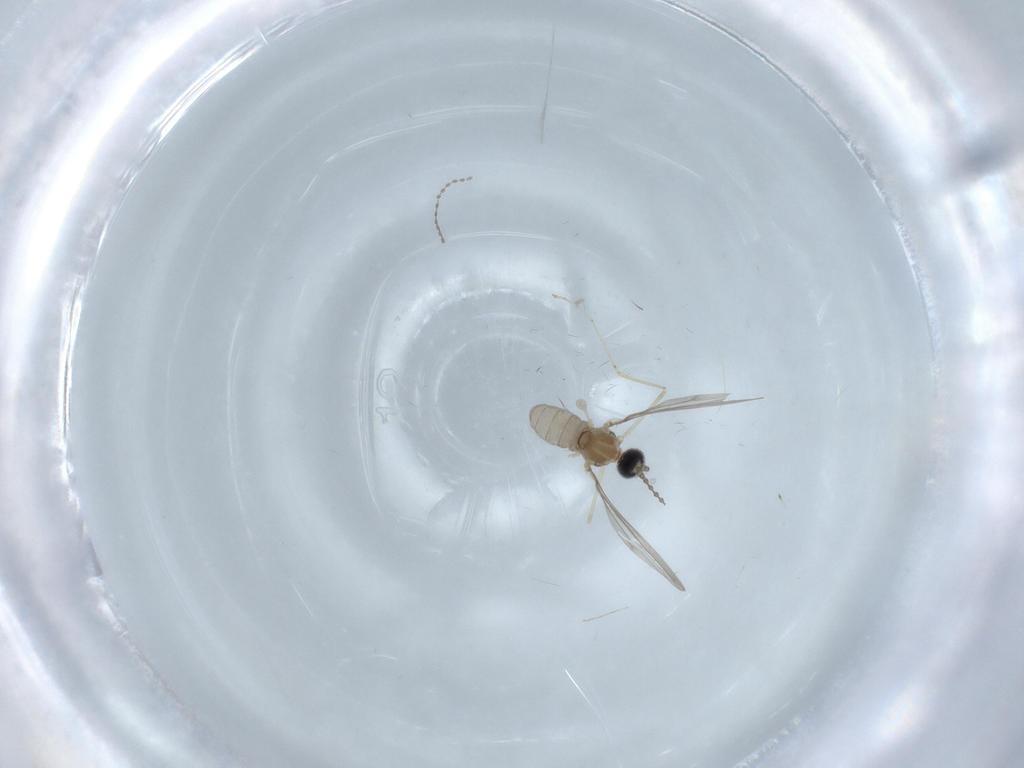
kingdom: Animalia
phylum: Arthropoda
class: Insecta
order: Diptera
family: Cecidomyiidae
